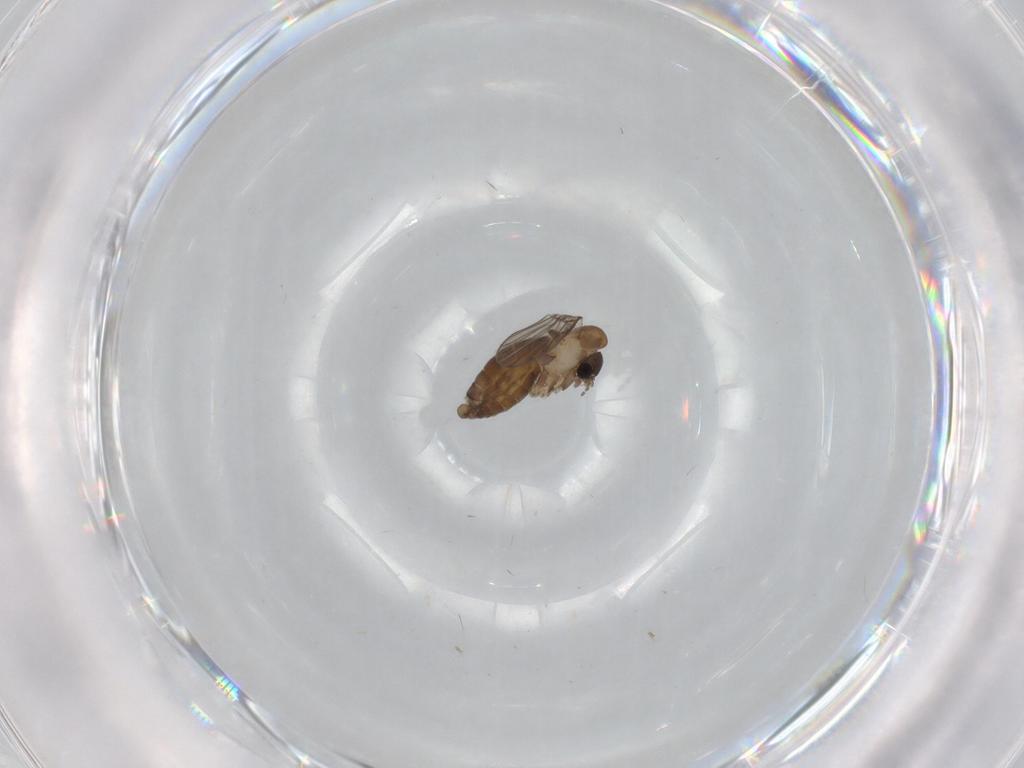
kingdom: Animalia
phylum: Arthropoda
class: Insecta
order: Diptera
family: Psychodidae
